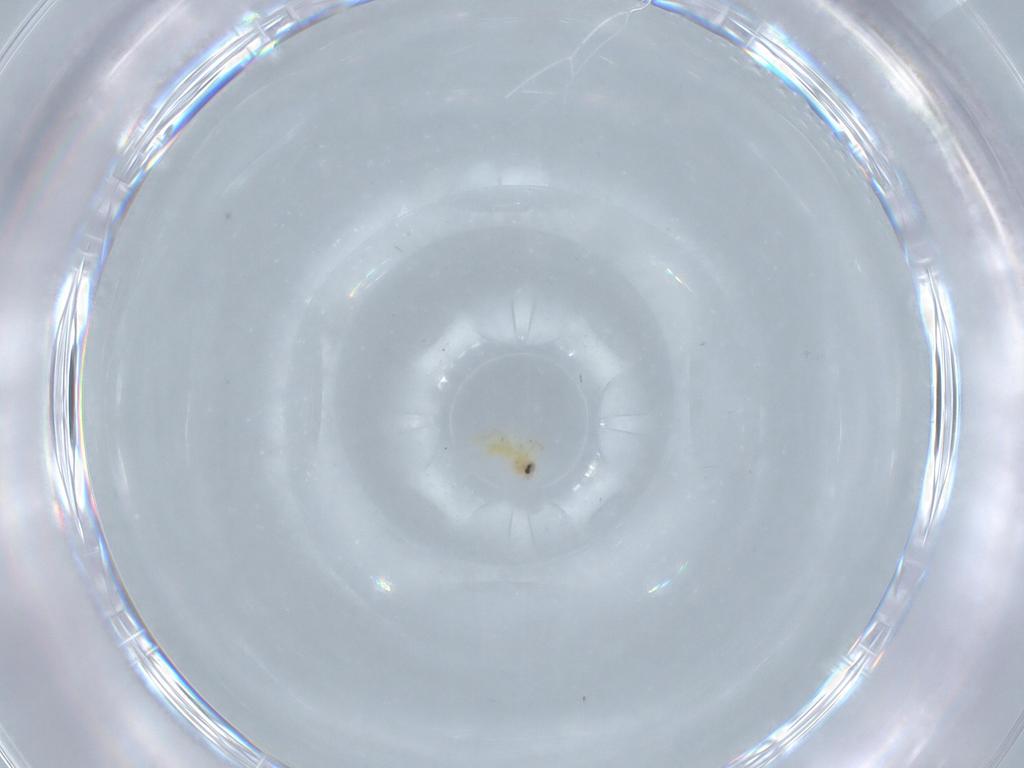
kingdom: Animalia
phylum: Arthropoda
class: Insecta
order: Hemiptera
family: Aleyrodidae
